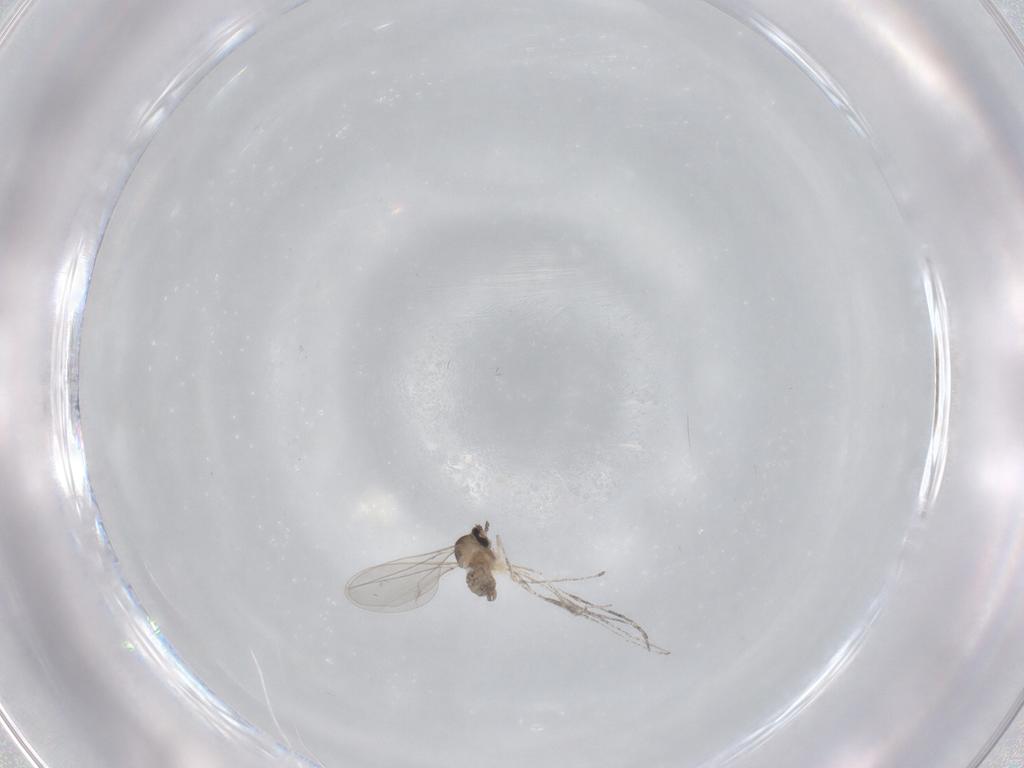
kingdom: Animalia
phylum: Arthropoda
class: Insecta
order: Diptera
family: Cecidomyiidae
